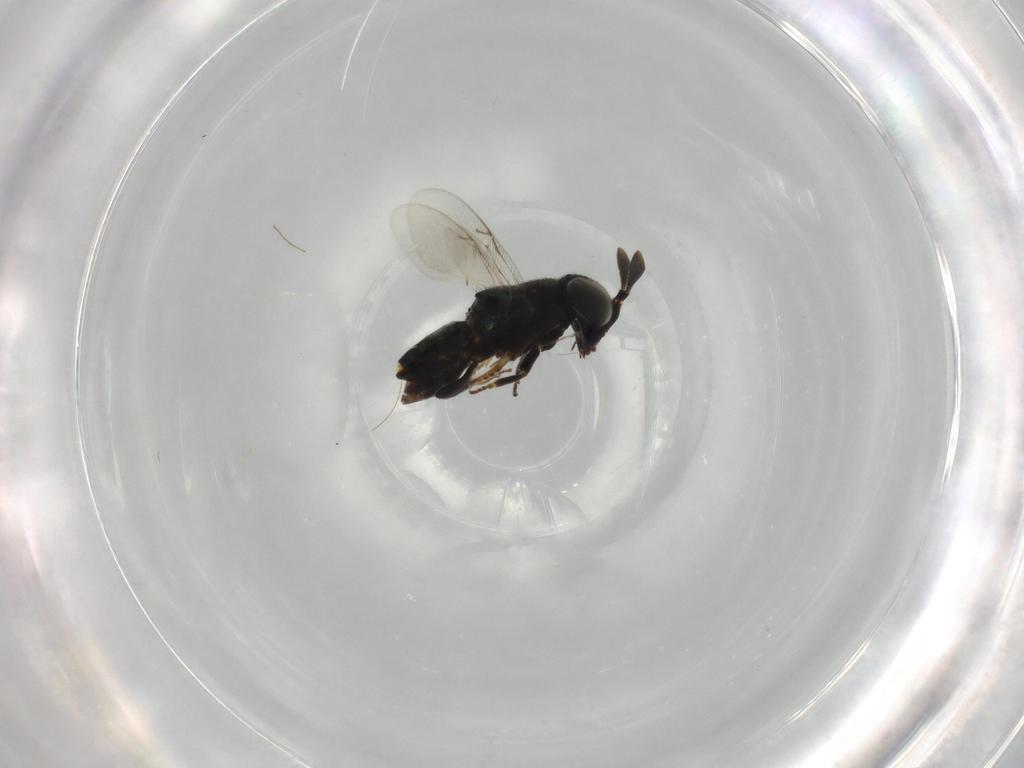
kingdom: Animalia
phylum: Arthropoda
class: Insecta
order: Hymenoptera
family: Encyrtidae
